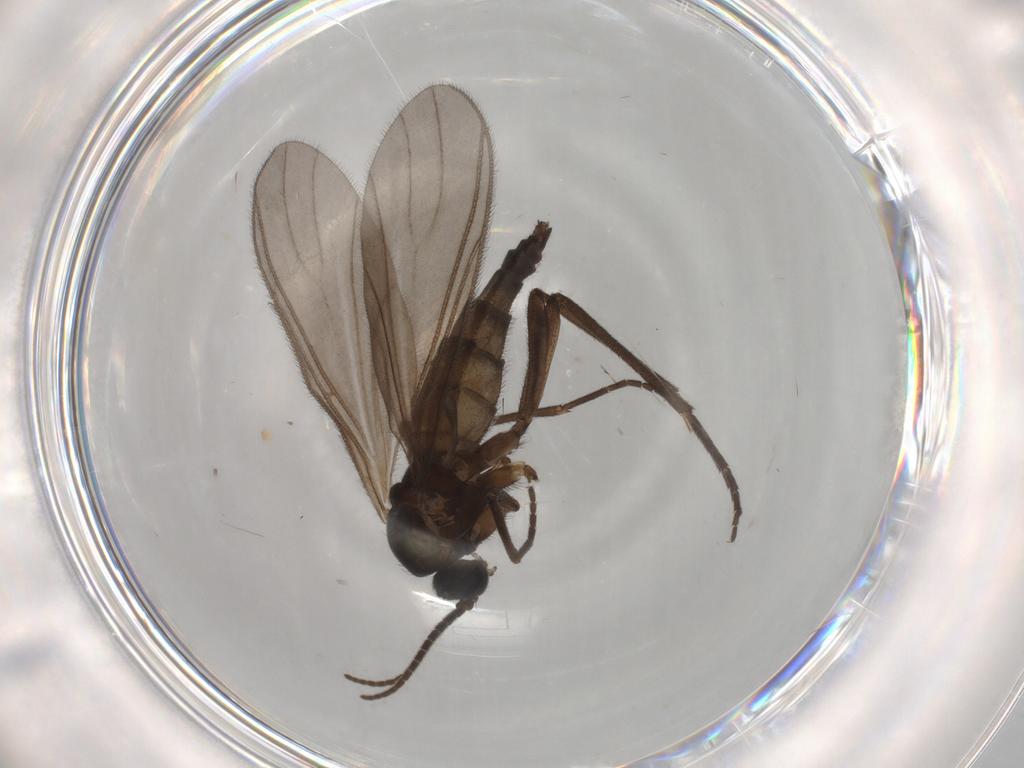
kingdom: Animalia
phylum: Arthropoda
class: Insecta
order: Diptera
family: Sciaridae
